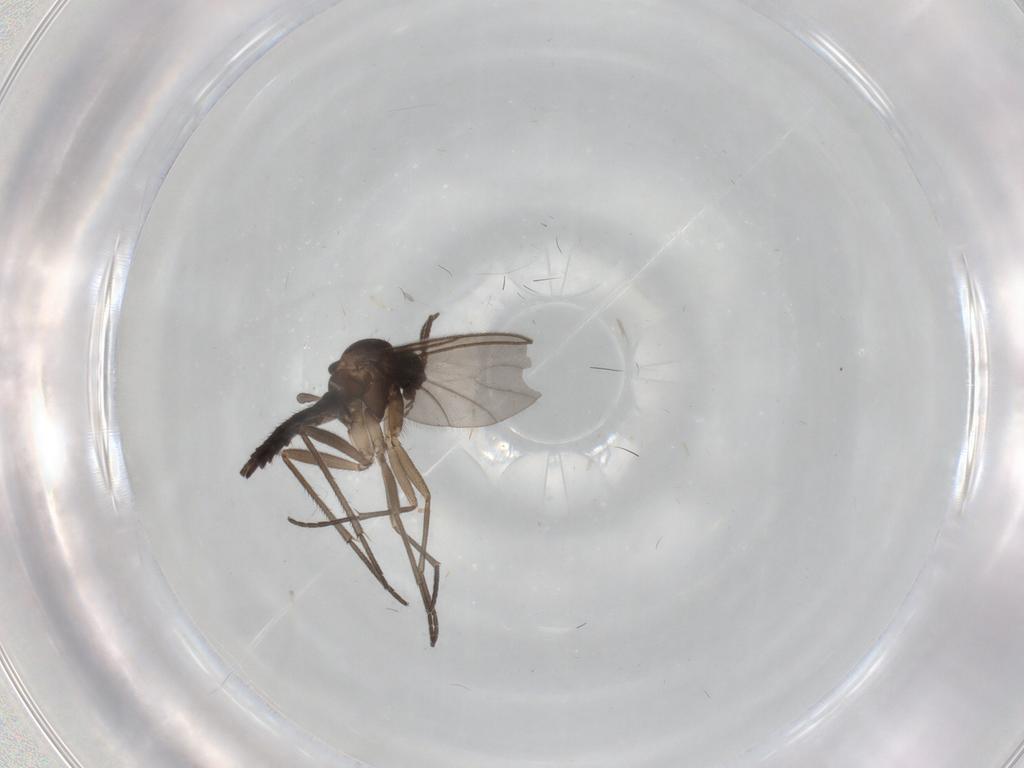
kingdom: Animalia
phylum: Arthropoda
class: Insecta
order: Diptera
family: Sciaridae
